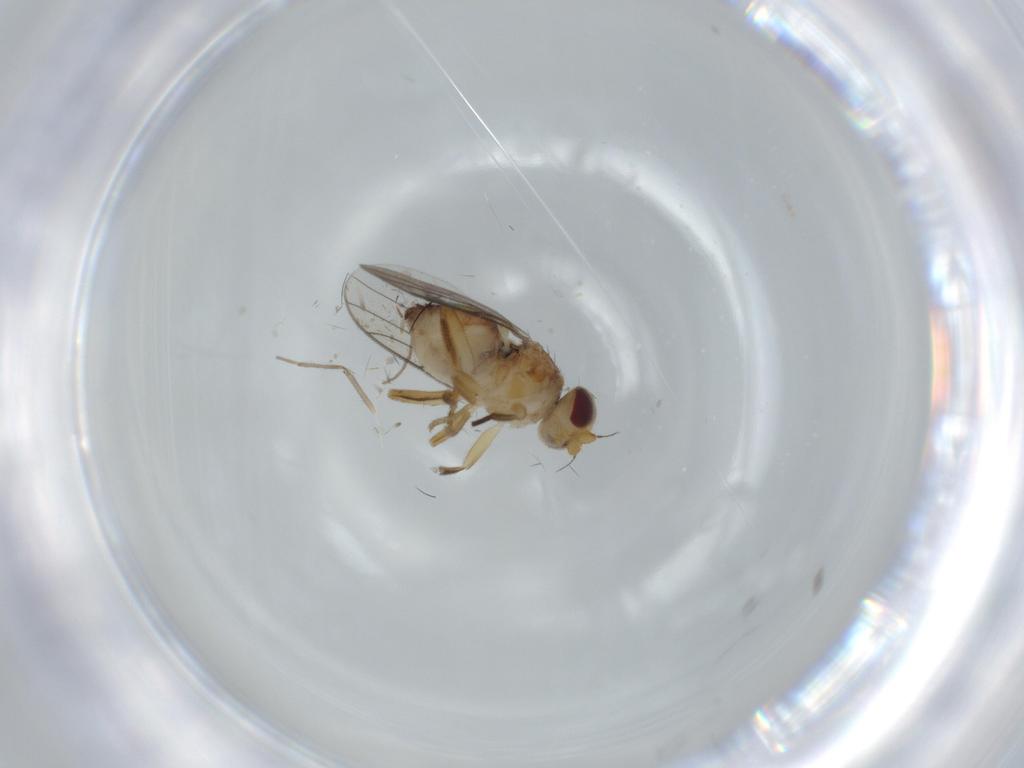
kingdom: Animalia
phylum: Arthropoda
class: Insecta
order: Diptera
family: Chloropidae
